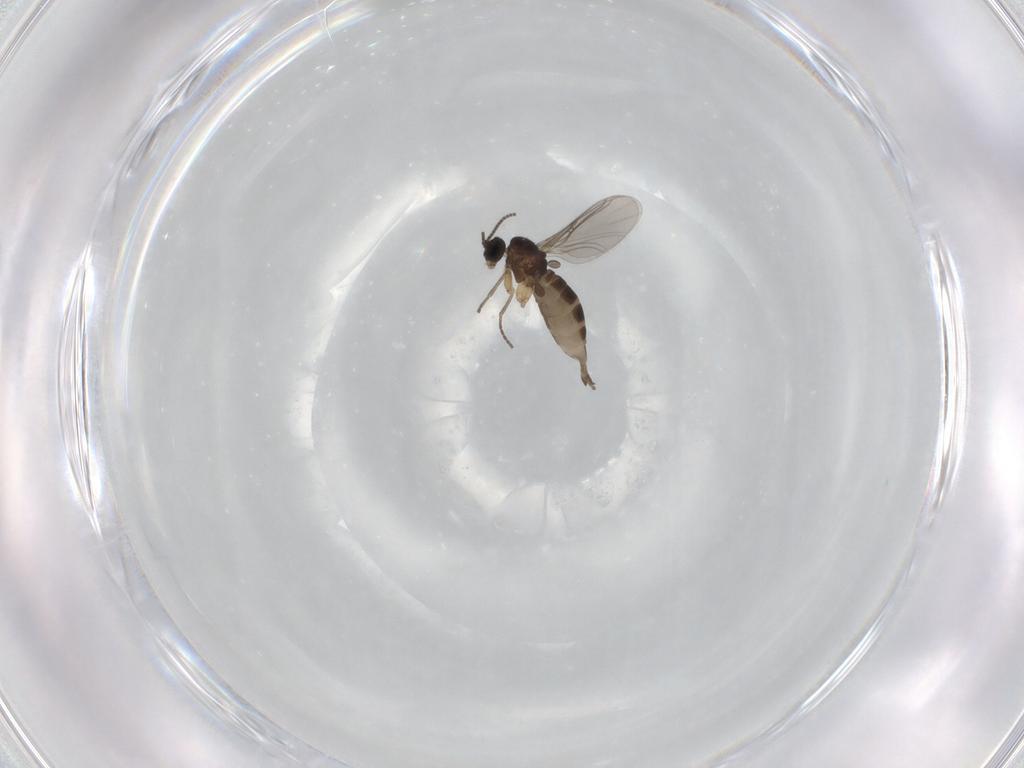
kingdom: Animalia
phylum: Arthropoda
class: Insecta
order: Diptera
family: Sciaridae
